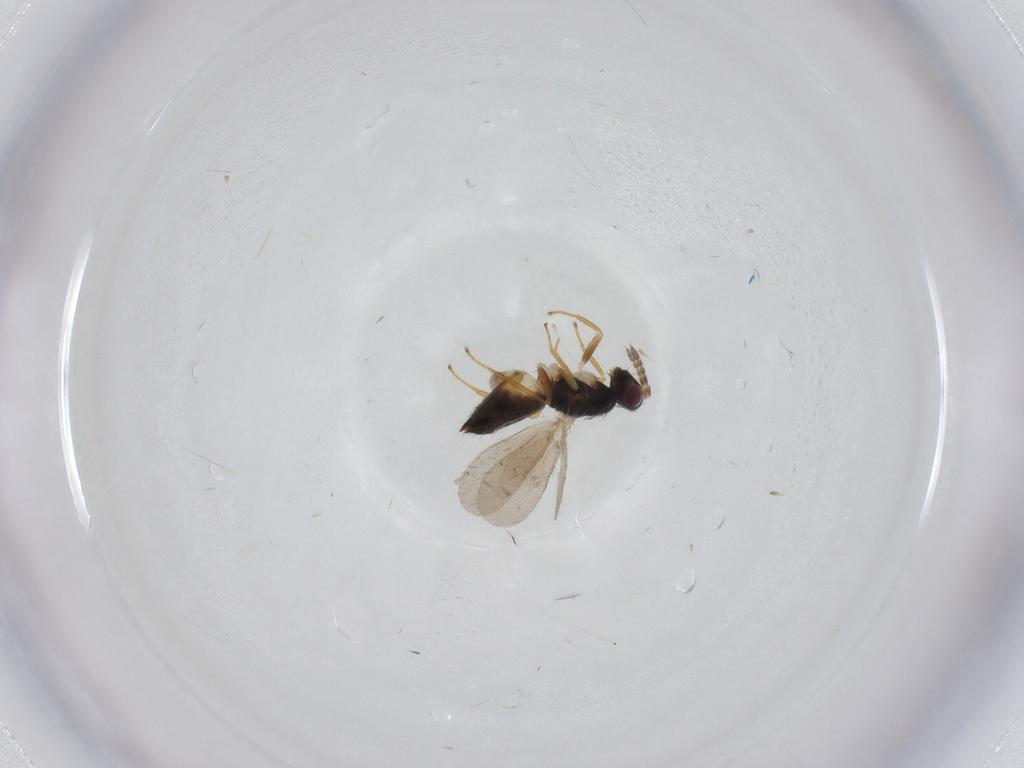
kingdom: Animalia
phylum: Arthropoda
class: Insecta
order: Hymenoptera
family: Eulophidae
